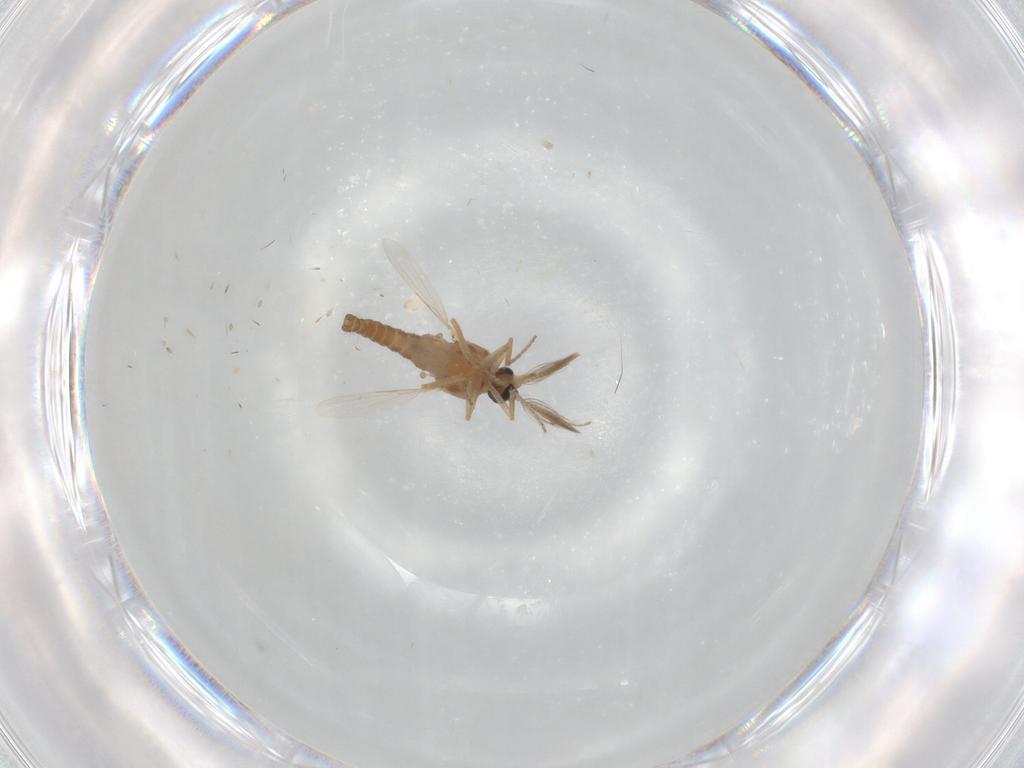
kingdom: Animalia
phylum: Arthropoda
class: Insecta
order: Diptera
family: Ceratopogonidae
